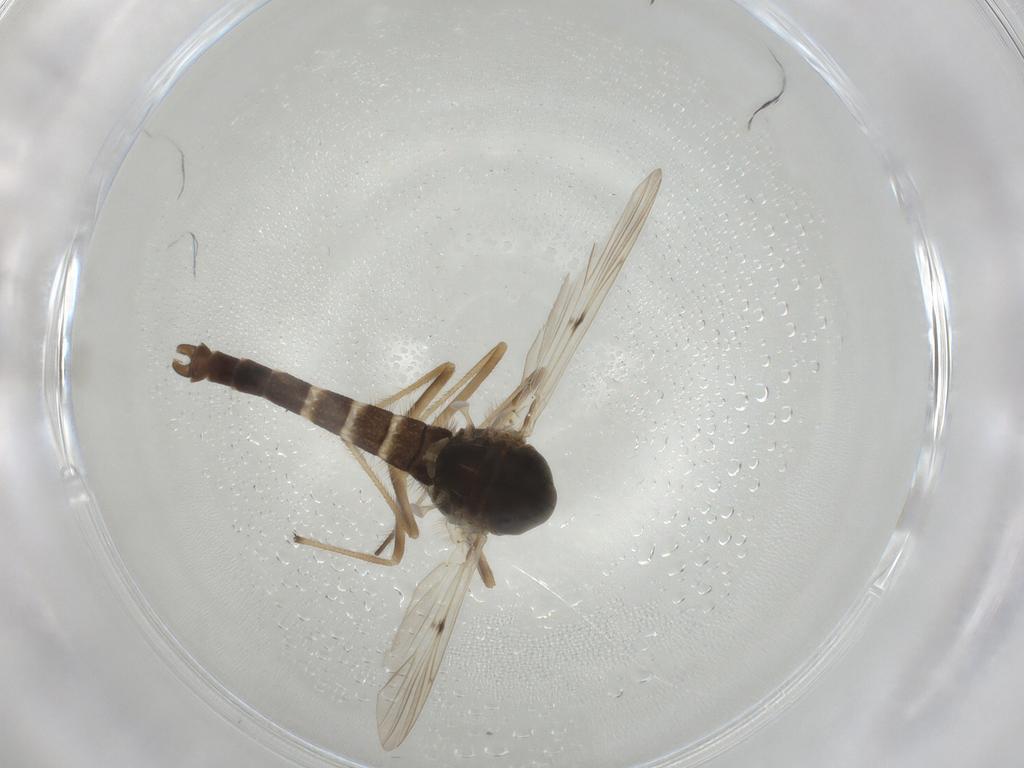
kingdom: Animalia
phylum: Arthropoda
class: Insecta
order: Diptera
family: Chironomidae
